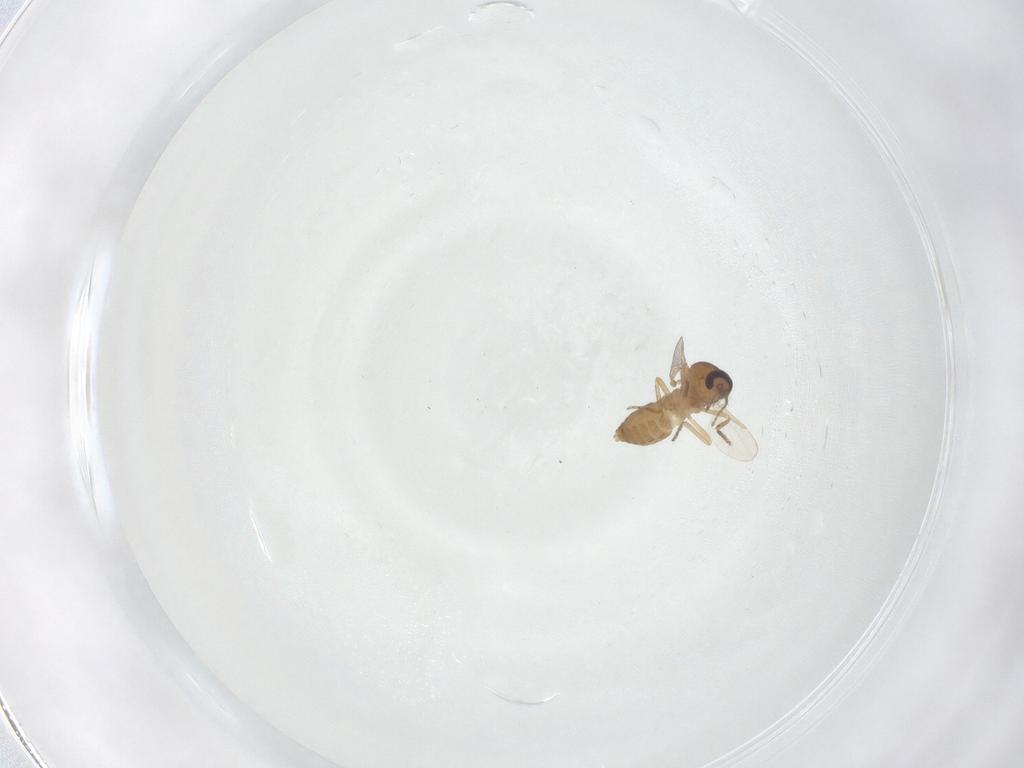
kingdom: Animalia
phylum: Arthropoda
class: Insecta
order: Diptera
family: Ceratopogonidae
